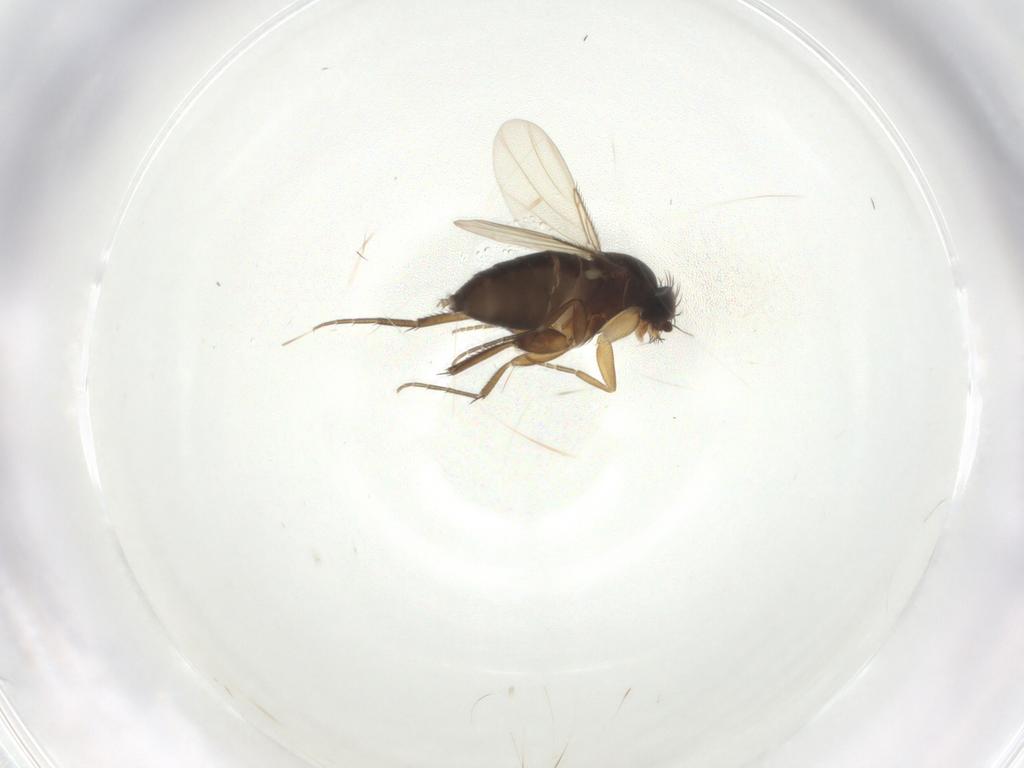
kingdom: Animalia
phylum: Arthropoda
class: Insecta
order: Diptera
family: Phoridae
